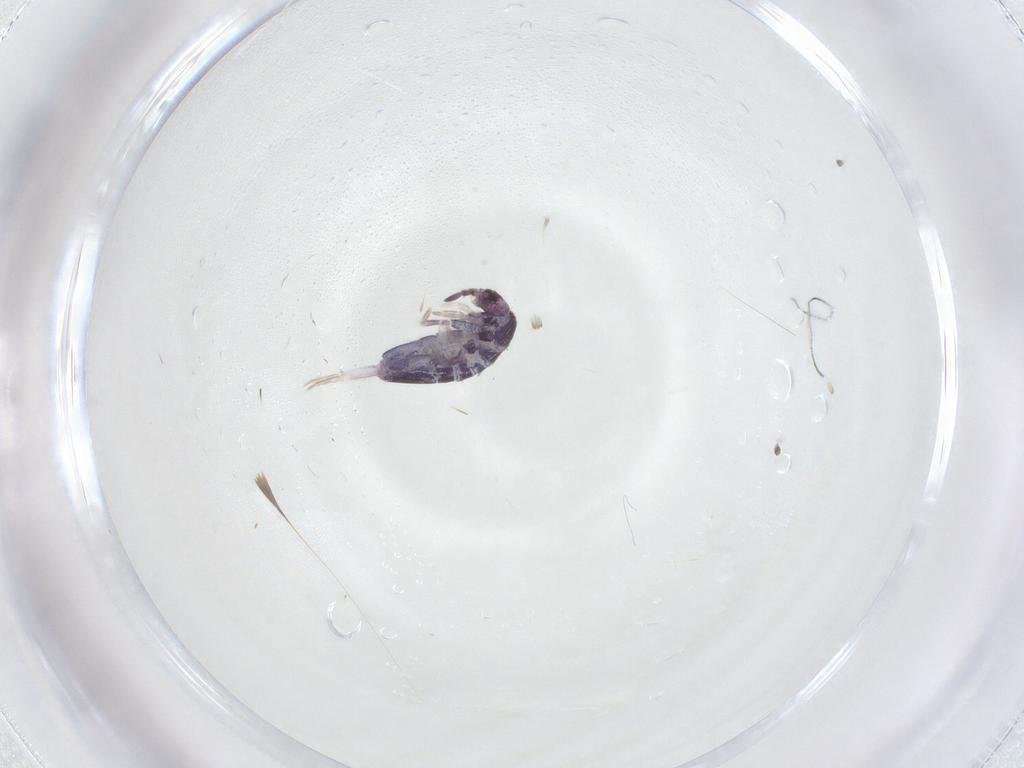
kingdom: Animalia
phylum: Arthropoda
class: Collembola
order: Entomobryomorpha
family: Entomobryidae
